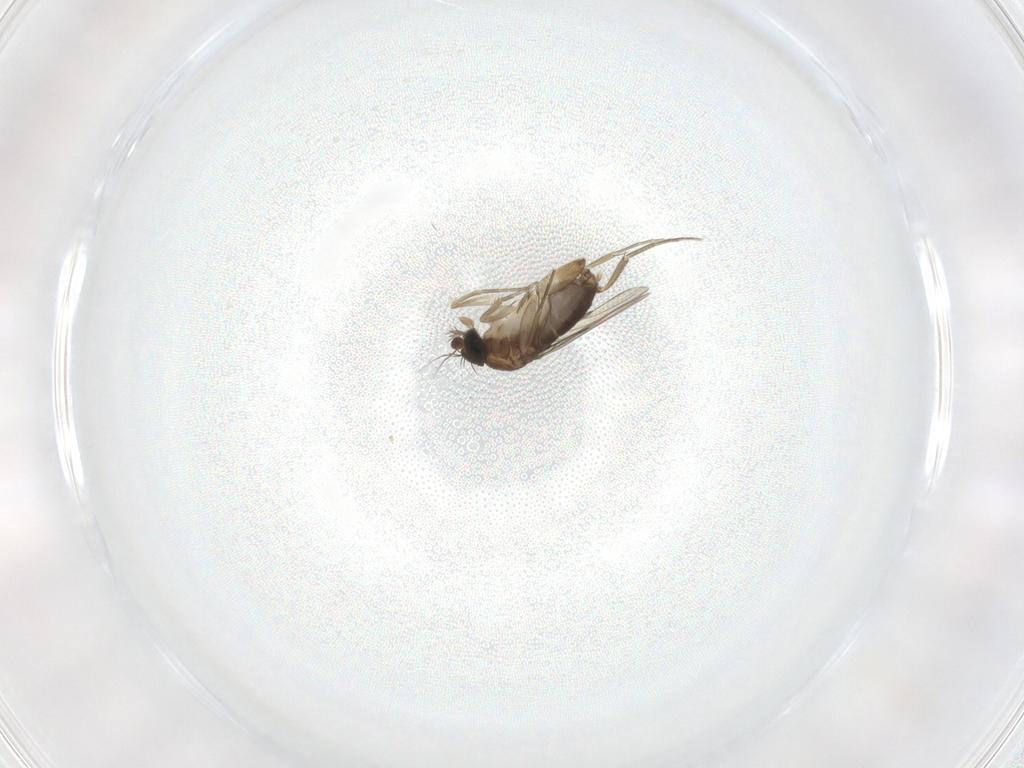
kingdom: Animalia
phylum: Arthropoda
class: Insecta
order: Diptera
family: Phoridae
